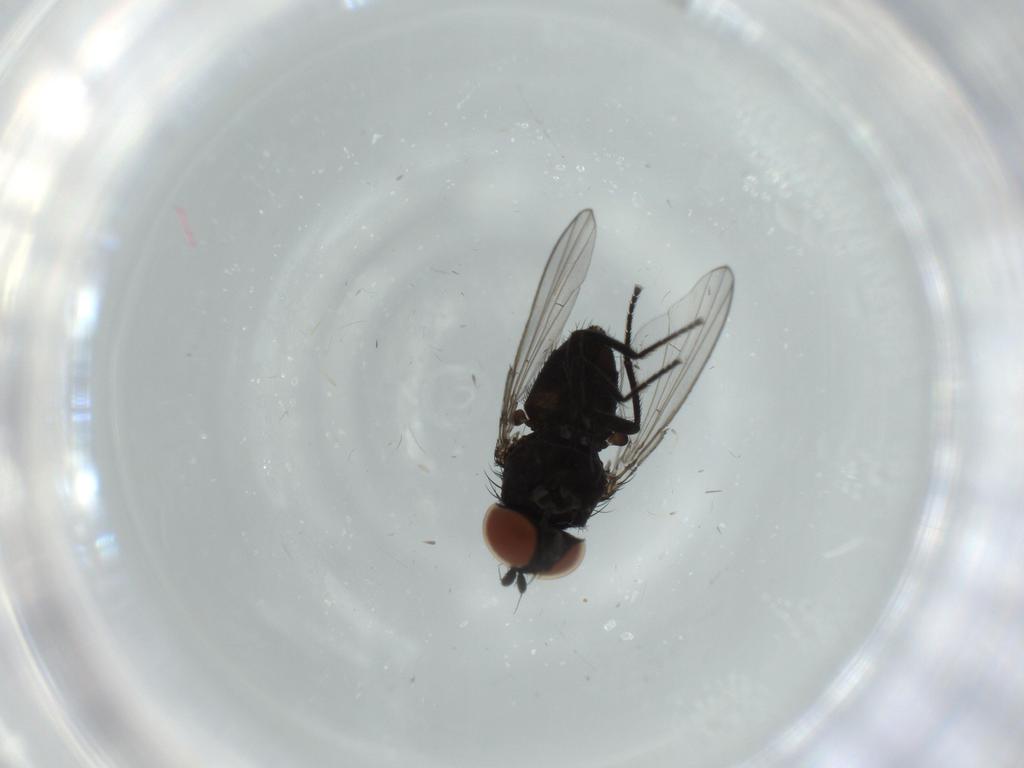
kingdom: Animalia
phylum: Arthropoda
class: Insecta
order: Diptera
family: Milichiidae
